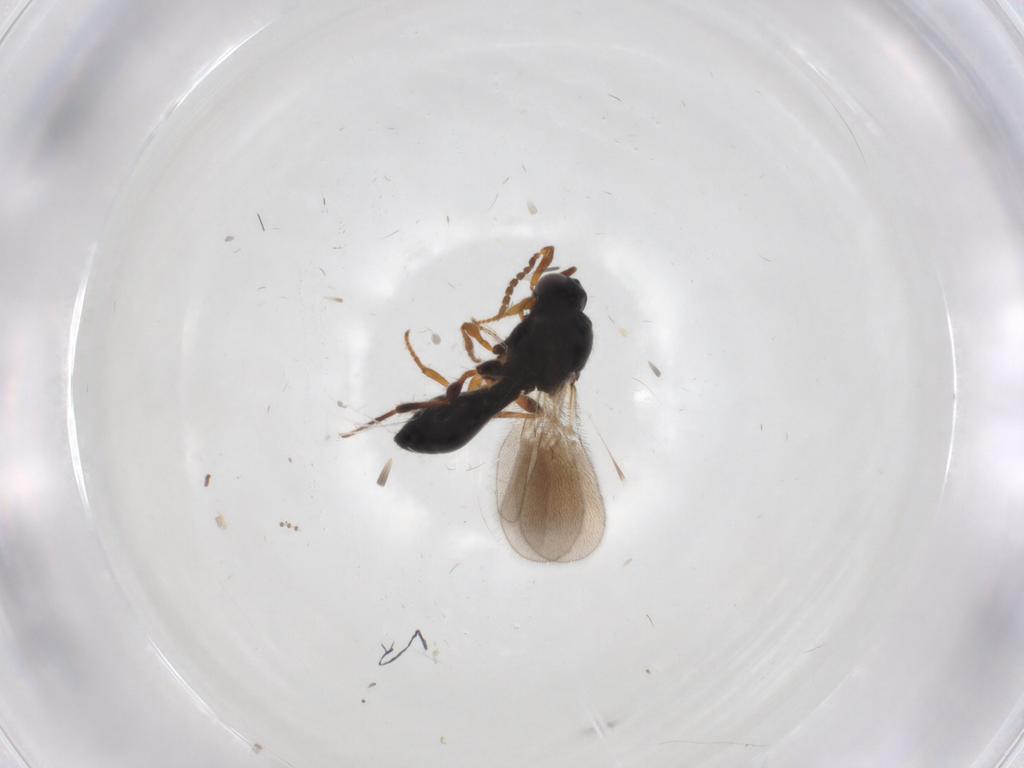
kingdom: Animalia
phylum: Arthropoda
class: Insecta
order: Hymenoptera
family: Platygastridae
